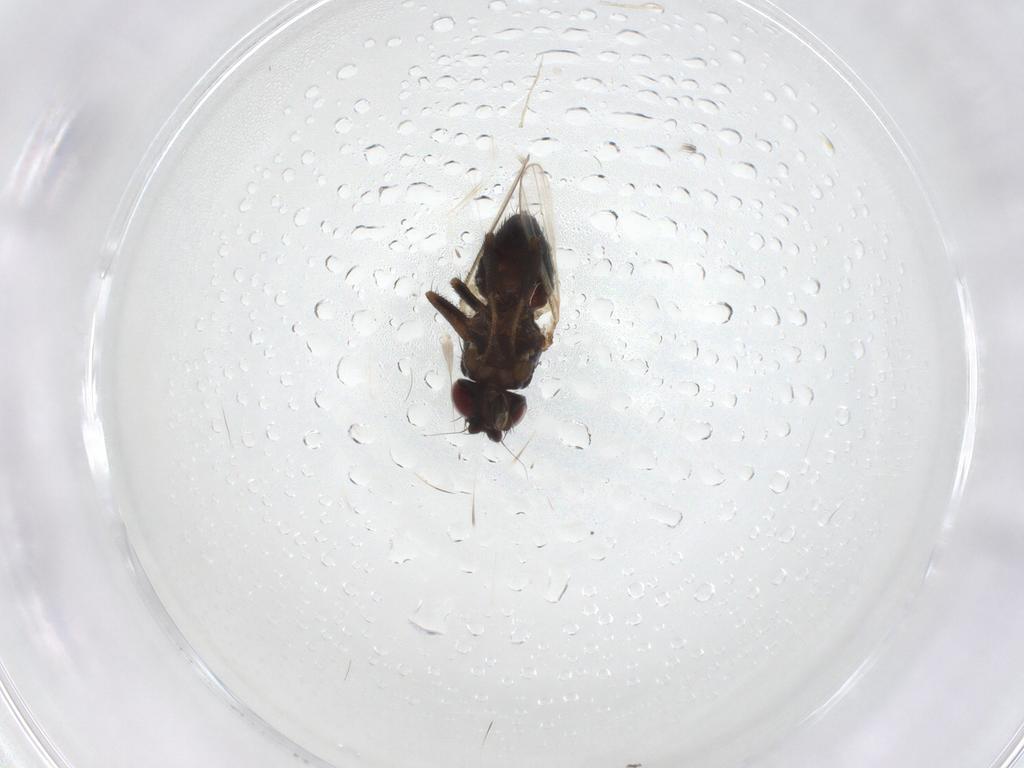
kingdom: Animalia
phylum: Arthropoda
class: Insecta
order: Diptera
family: Milichiidae
